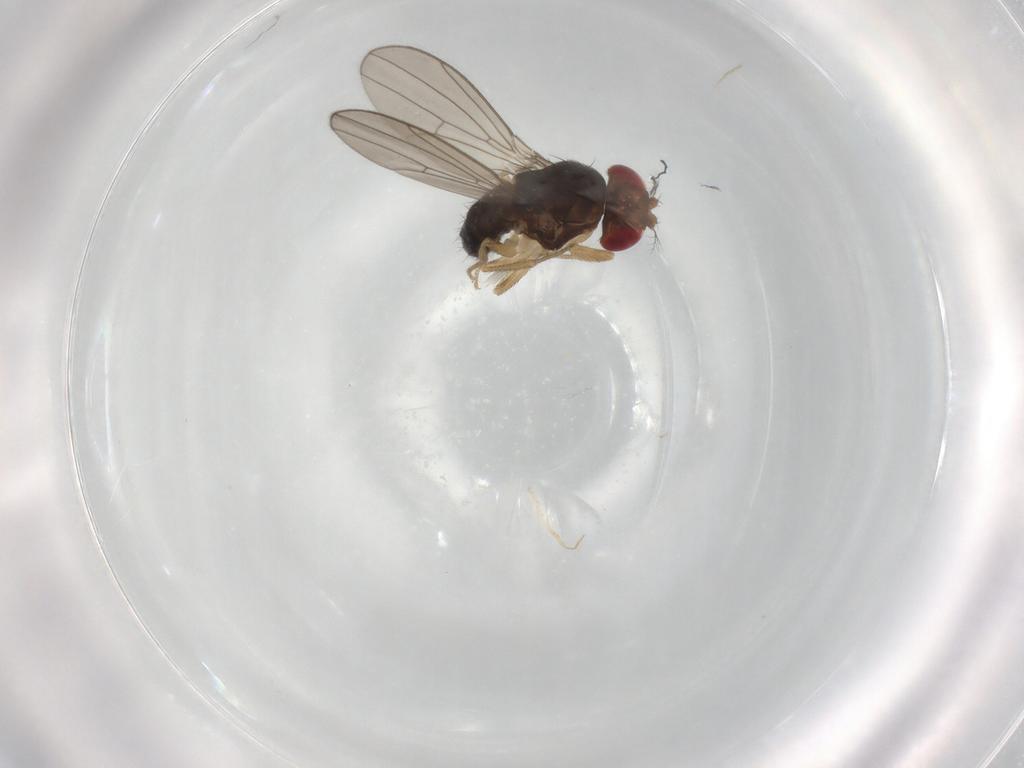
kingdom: Animalia
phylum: Arthropoda
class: Insecta
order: Diptera
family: Drosophilidae
